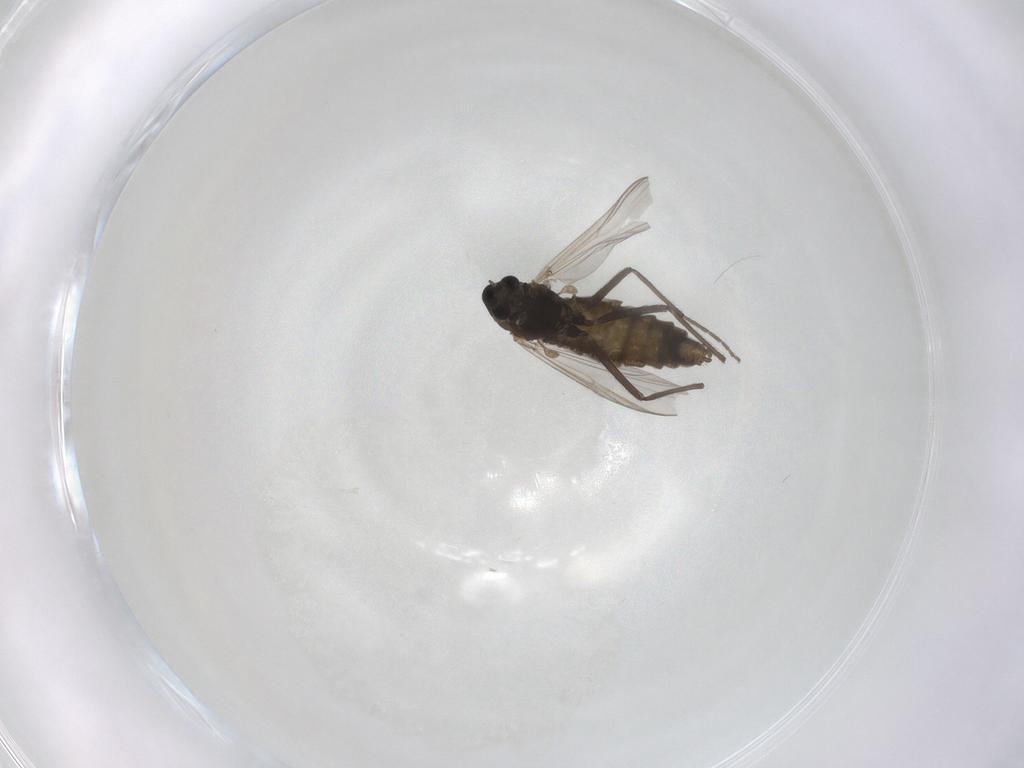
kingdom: Animalia
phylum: Arthropoda
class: Insecta
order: Diptera
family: Chironomidae
